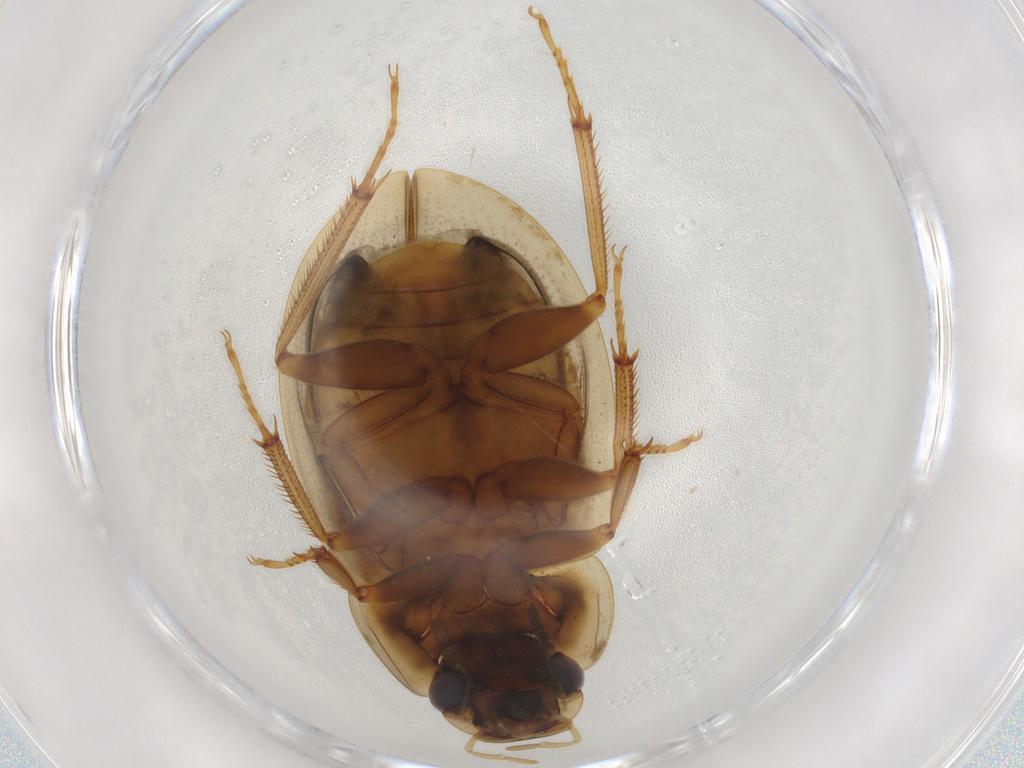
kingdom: Animalia
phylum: Arthropoda
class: Insecta
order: Coleoptera
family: Hydrophilidae
